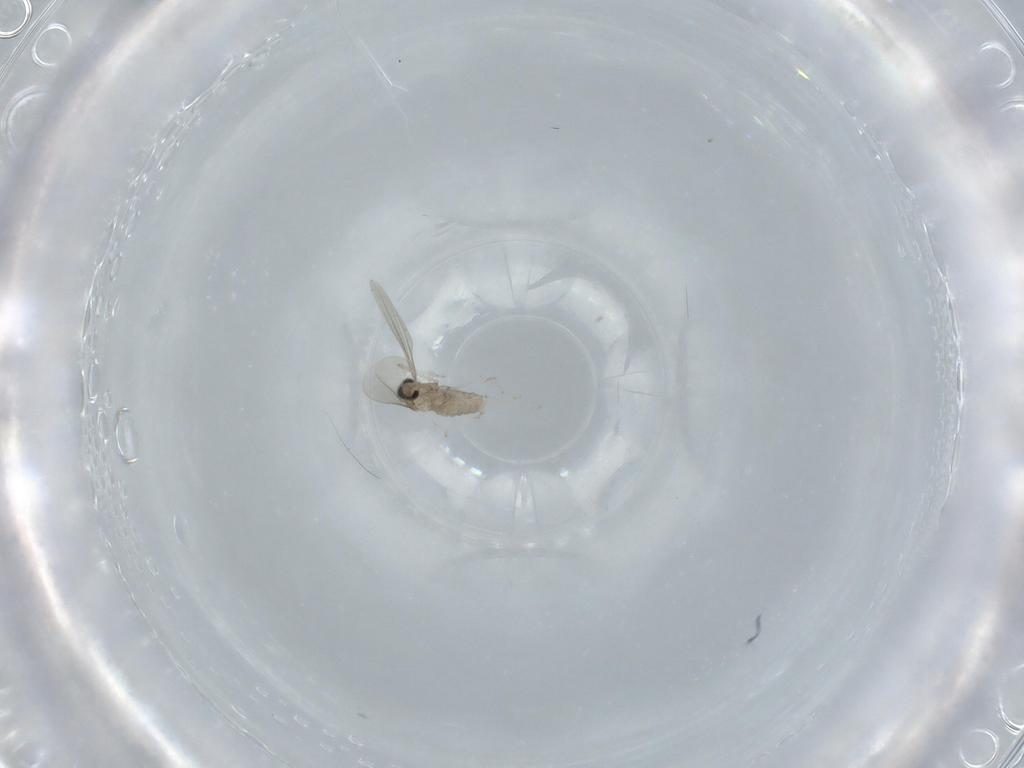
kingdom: Animalia
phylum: Arthropoda
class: Insecta
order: Diptera
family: Cecidomyiidae
